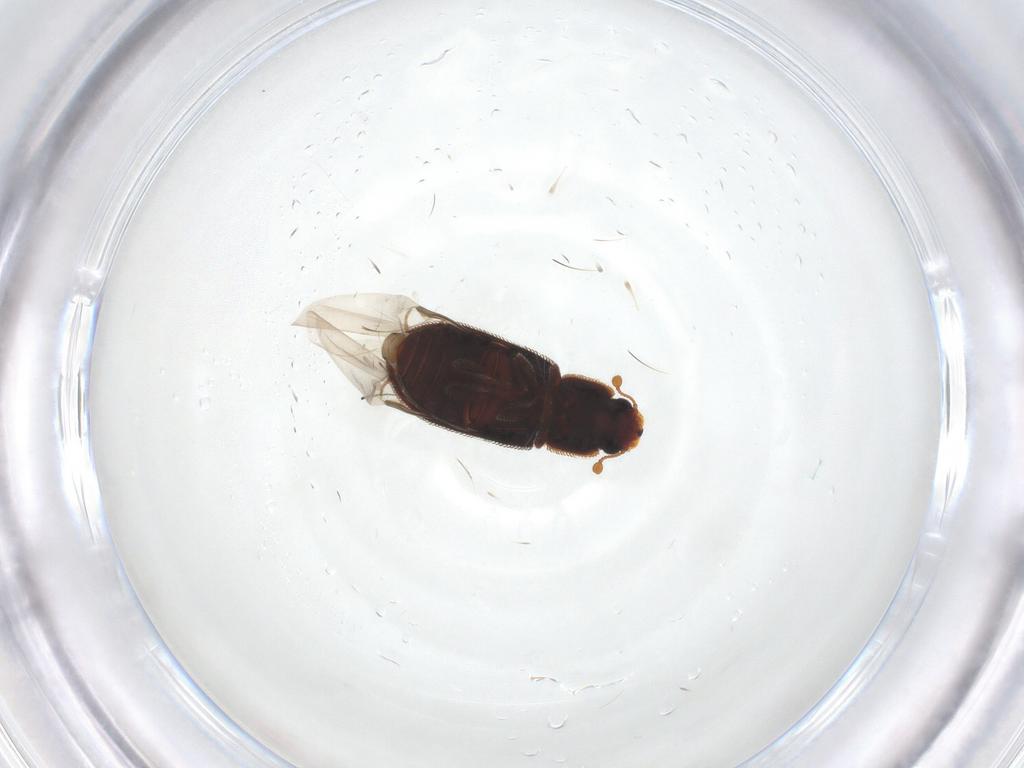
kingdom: Animalia
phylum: Arthropoda
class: Insecta
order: Coleoptera
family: Zopheridae
